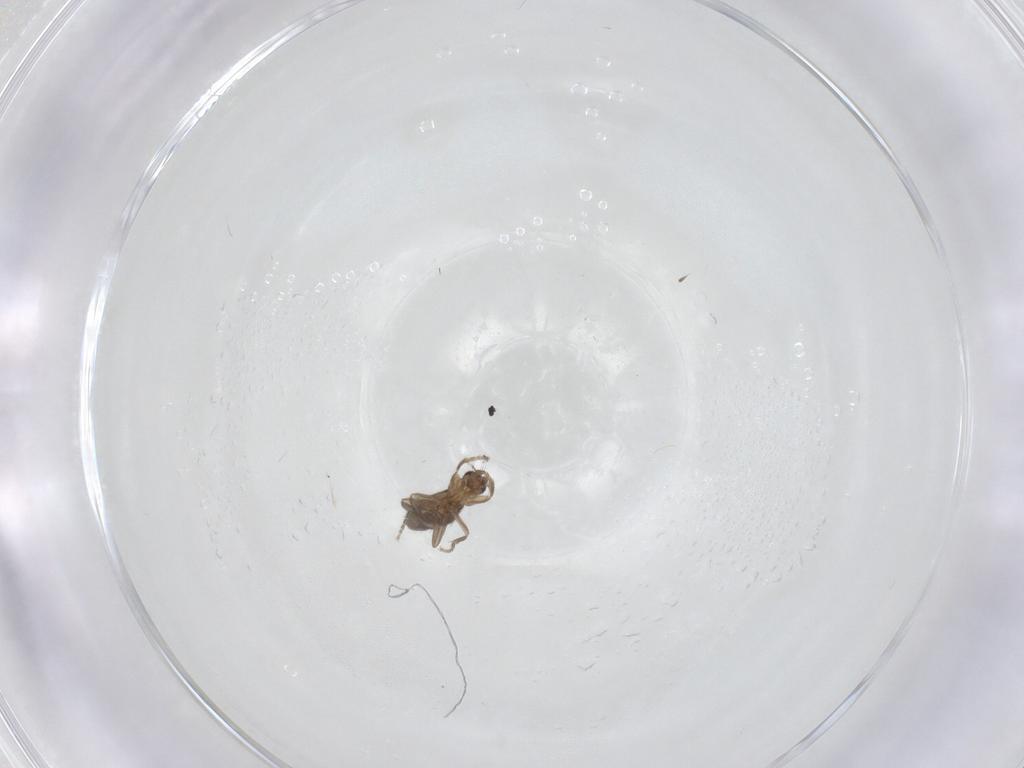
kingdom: Animalia
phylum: Arthropoda
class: Insecta
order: Diptera
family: Phoridae
